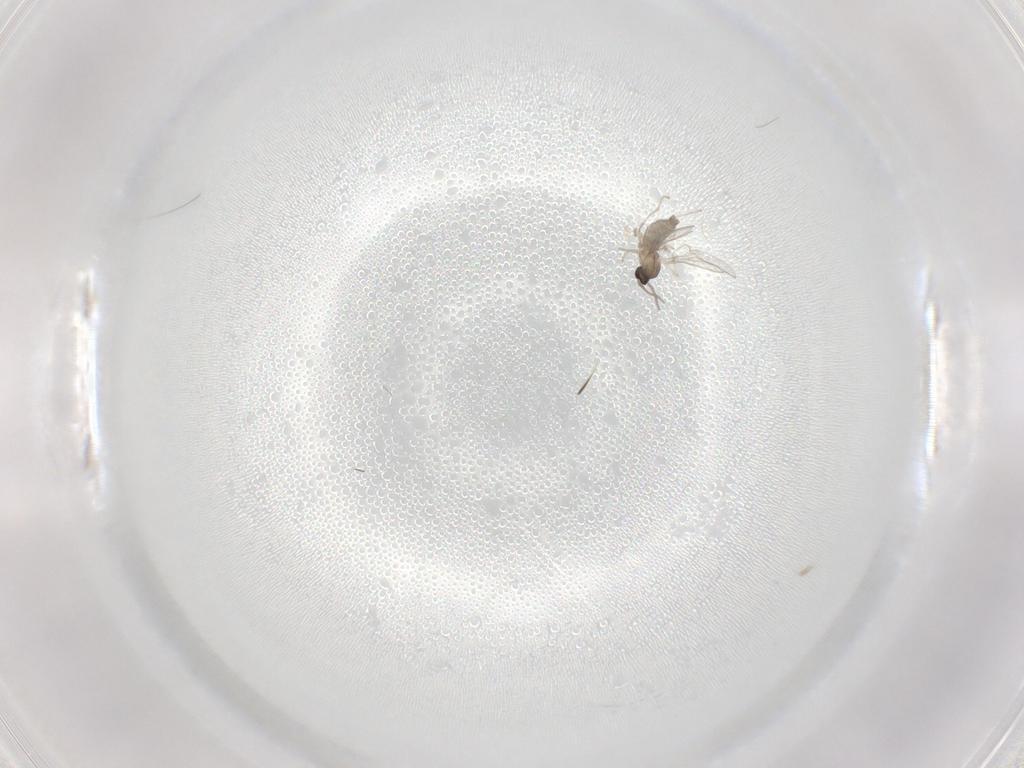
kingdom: Animalia
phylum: Arthropoda
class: Insecta
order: Diptera
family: Cecidomyiidae
